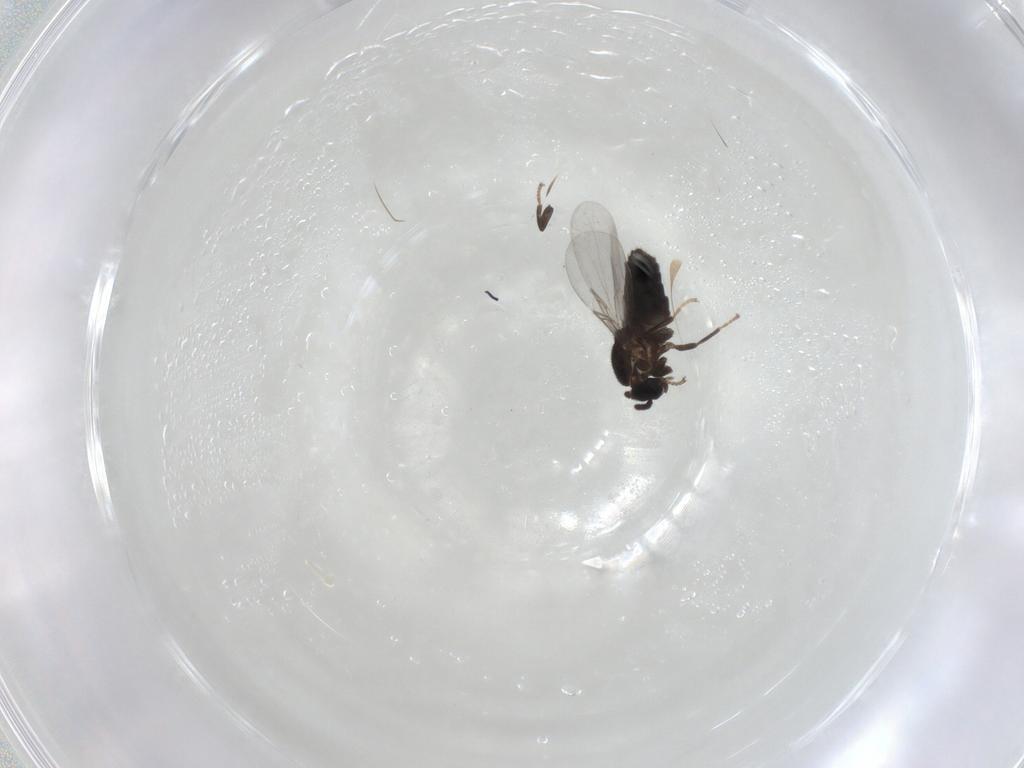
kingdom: Animalia
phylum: Arthropoda
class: Insecta
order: Diptera
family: Scatopsidae
